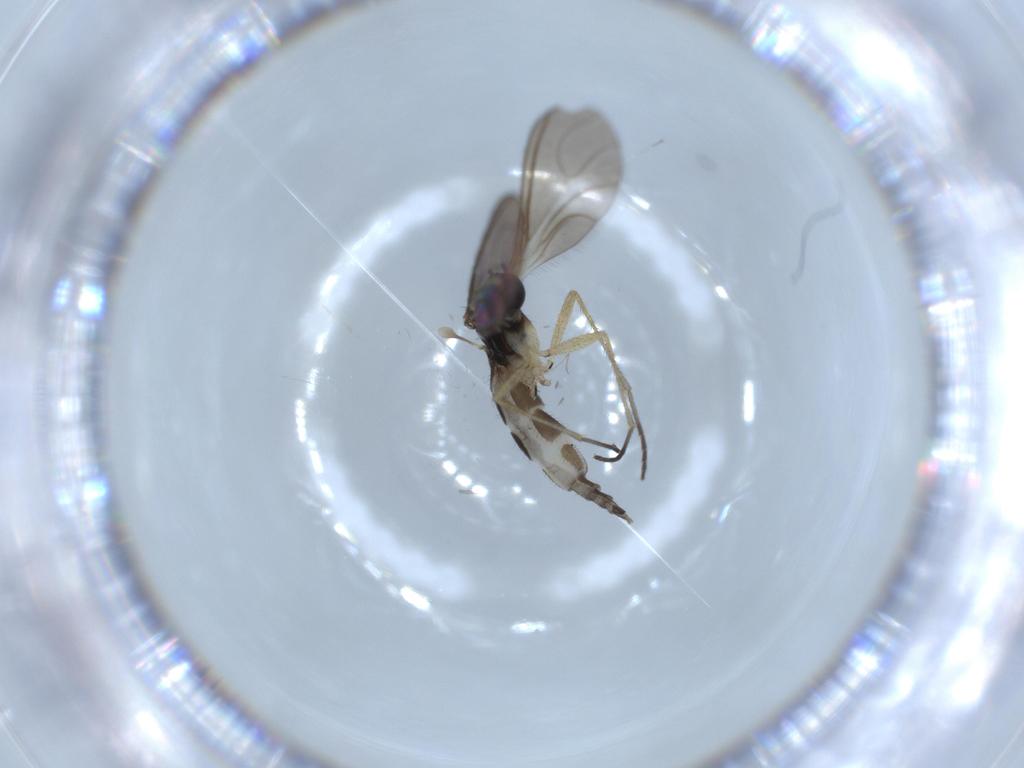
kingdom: Animalia
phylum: Arthropoda
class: Insecta
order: Diptera
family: Sciaridae
